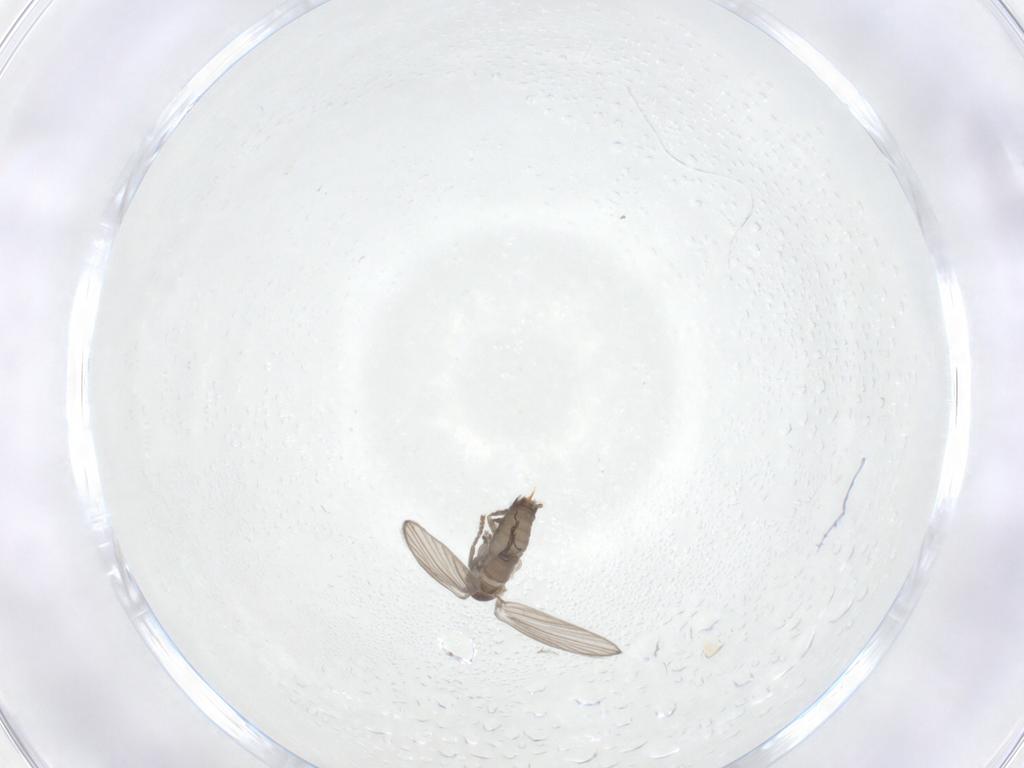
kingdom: Animalia
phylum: Arthropoda
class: Insecta
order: Diptera
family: Psychodidae
